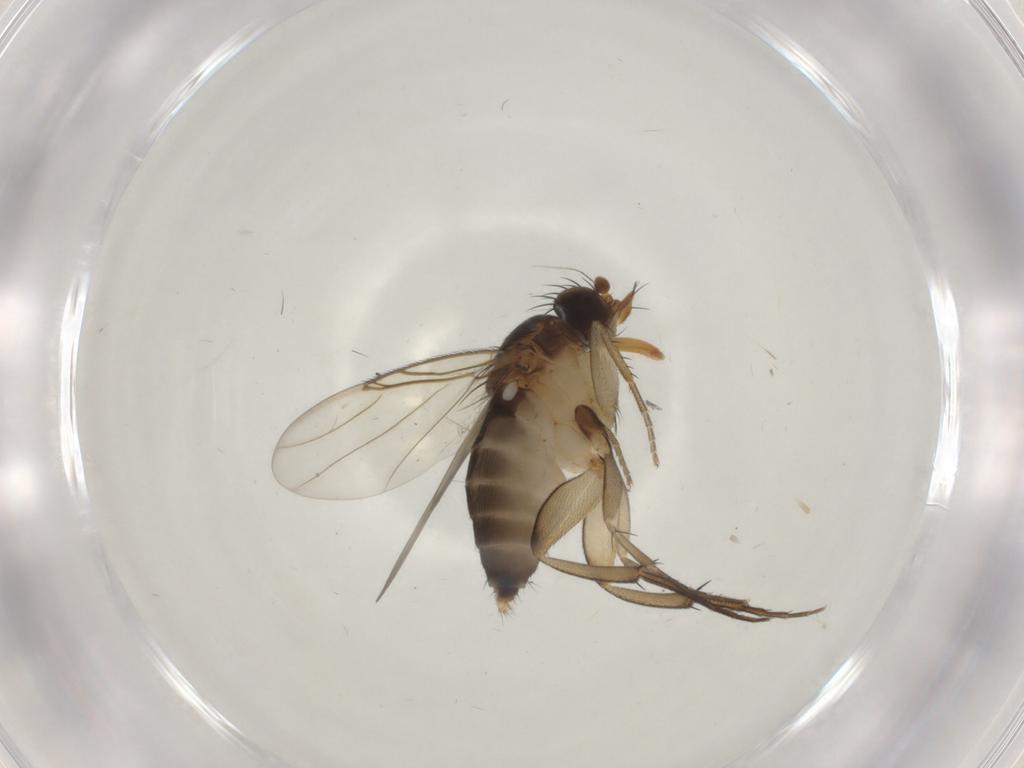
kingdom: Animalia
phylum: Arthropoda
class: Insecta
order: Diptera
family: Phoridae
